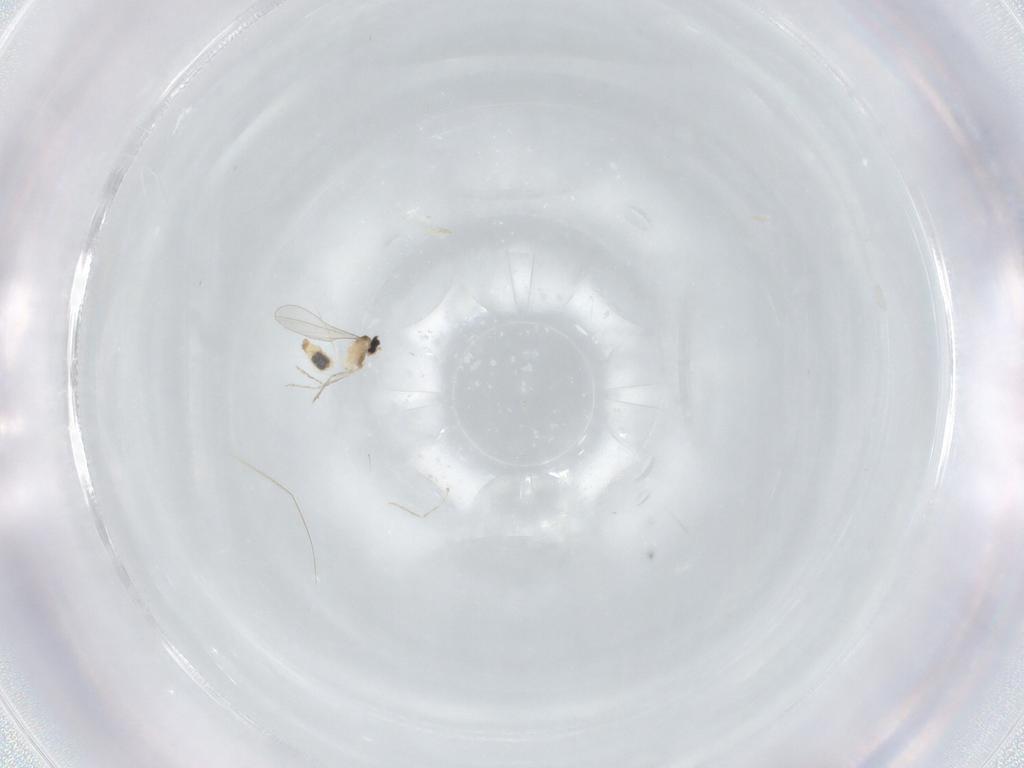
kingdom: Animalia
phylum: Arthropoda
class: Insecta
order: Diptera
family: Cecidomyiidae
